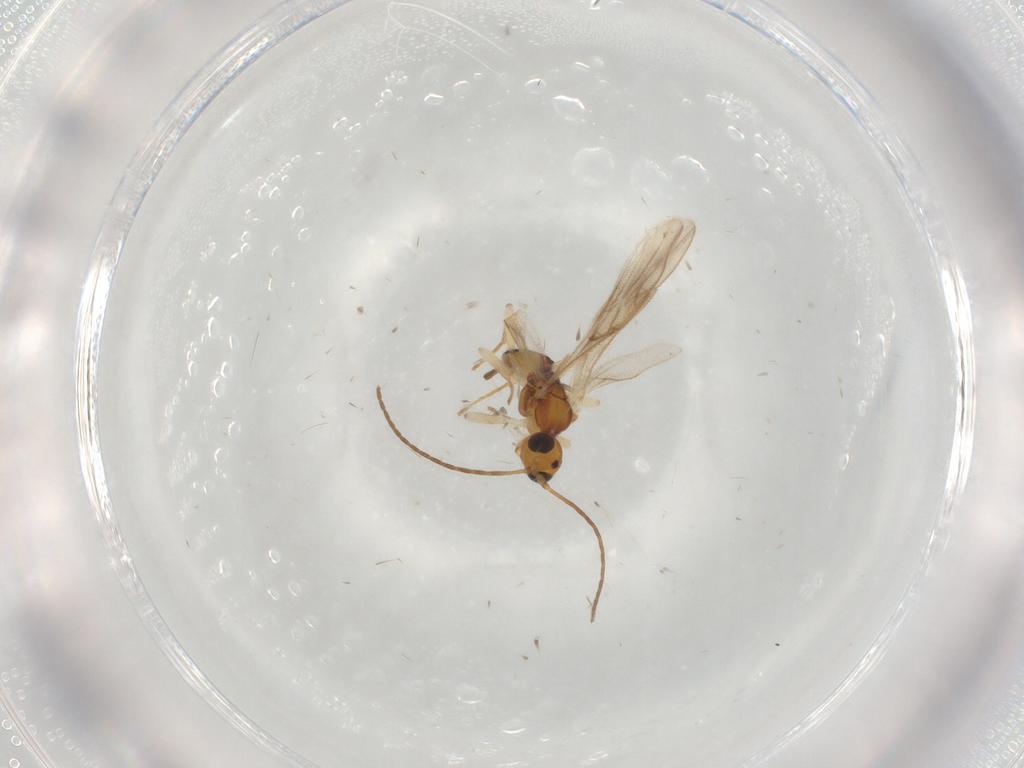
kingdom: Animalia
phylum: Arthropoda
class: Insecta
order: Hymenoptera
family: Braconidae
